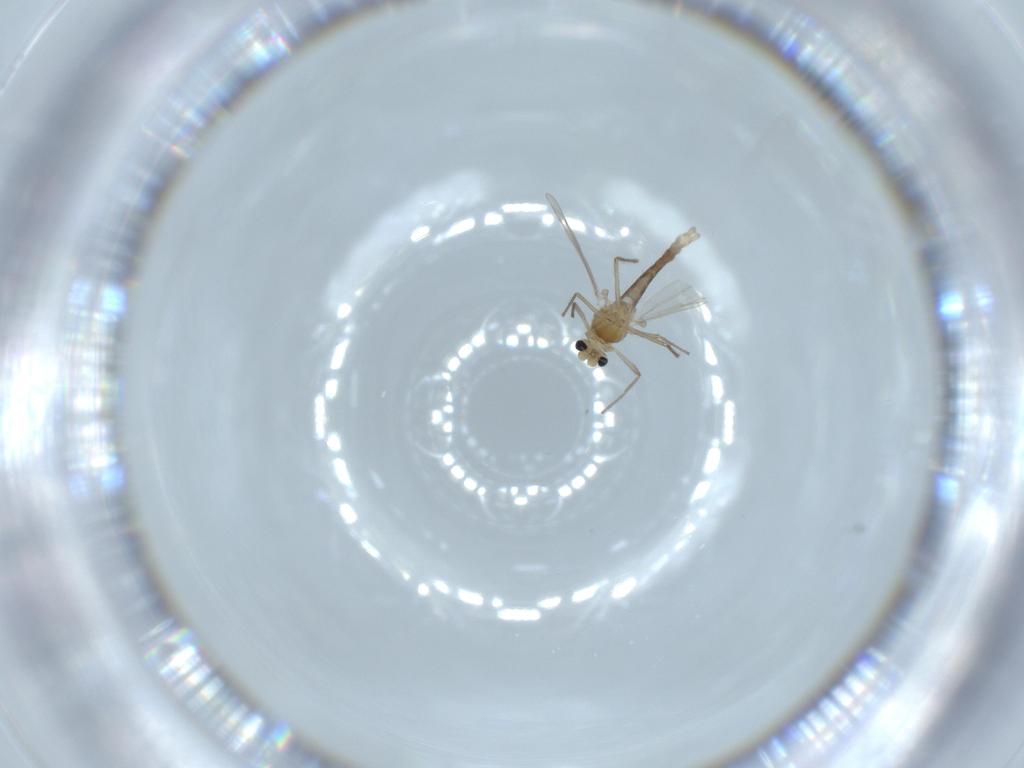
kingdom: Animalia
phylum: Arthropoda
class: Insecta
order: Diptera
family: Chironomidae
